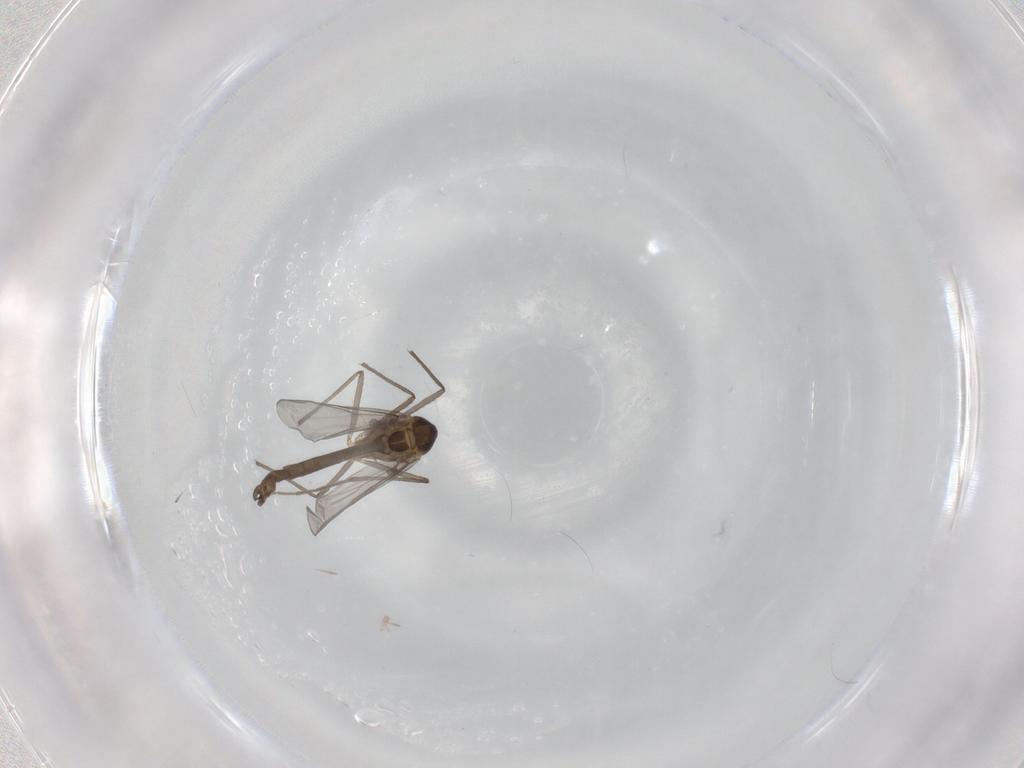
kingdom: Animalia
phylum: Arthropoda
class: Insecta
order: Diptera
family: Chironomidae
